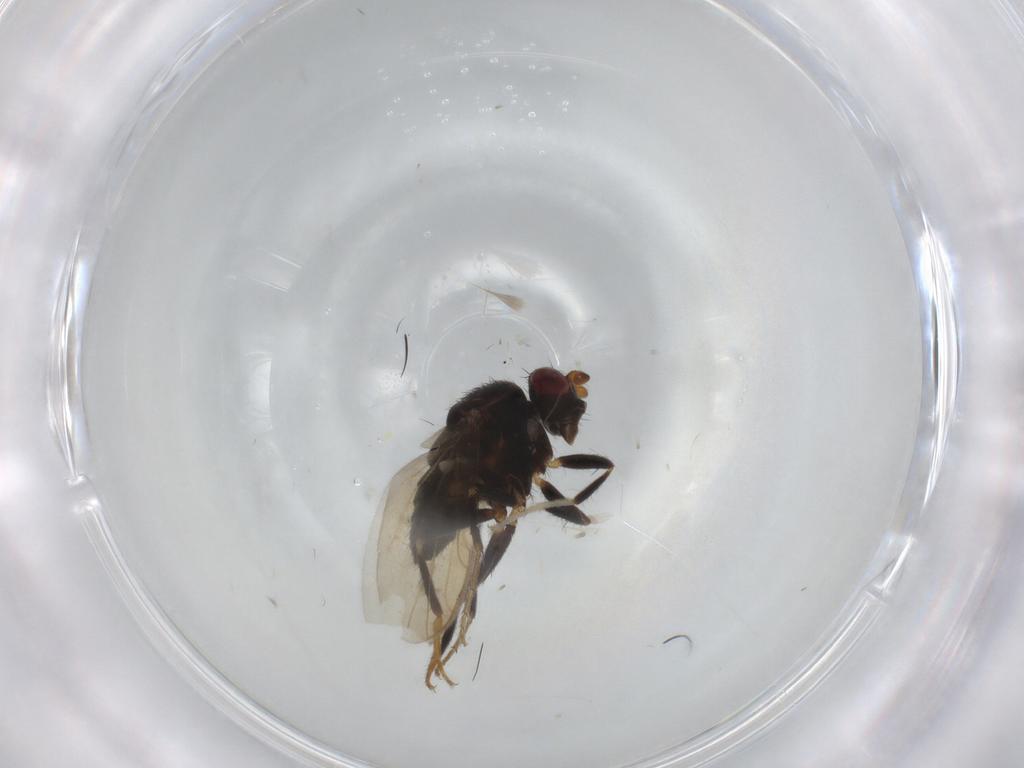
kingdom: Animalia
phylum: Arthropoda
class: Insecta
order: Diptera
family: Sphaeroceridae
